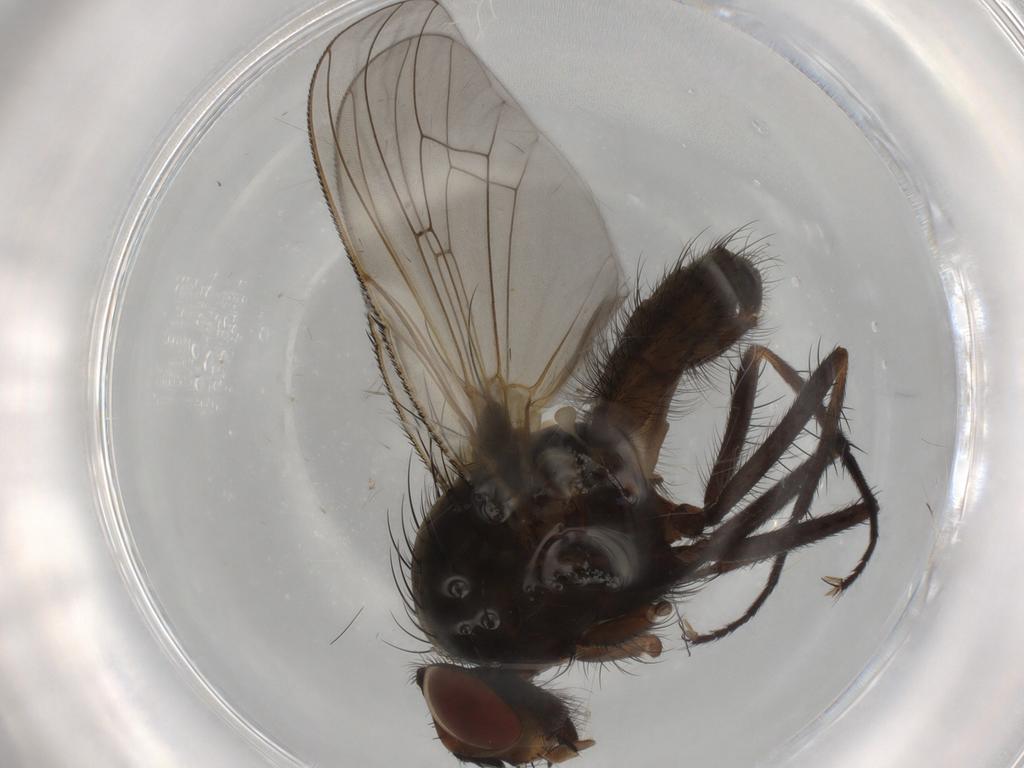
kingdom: Animalia
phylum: Arthropoda
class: Insecta
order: Diptera
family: Anthomyiidae
